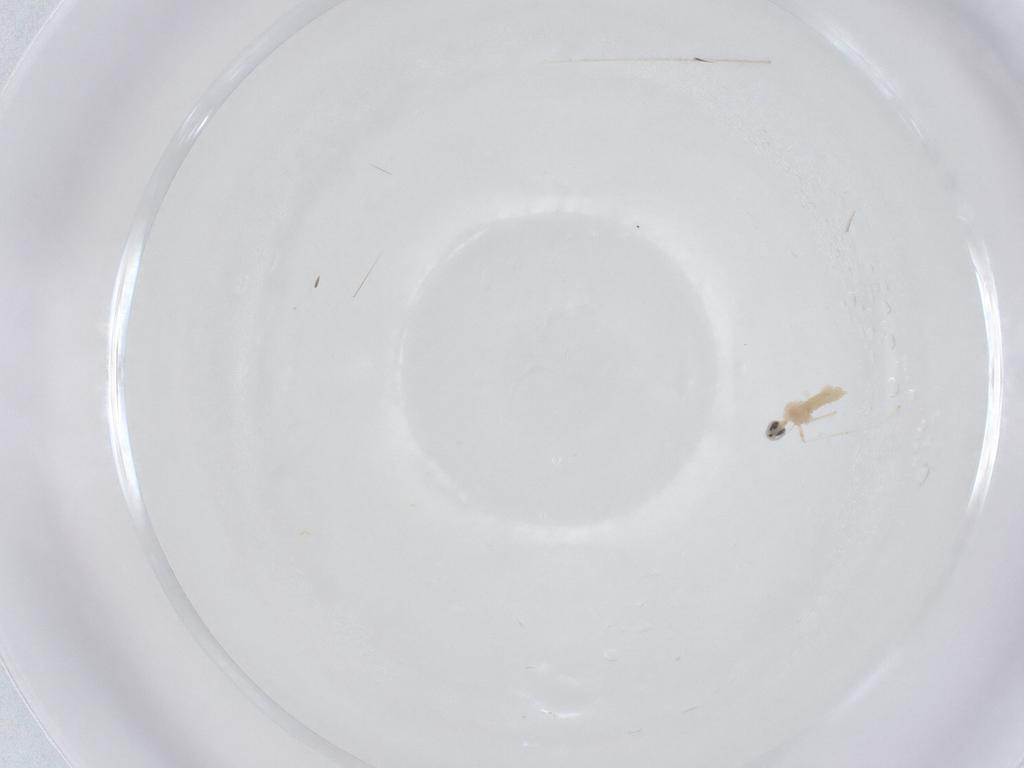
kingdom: Animalia
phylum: Arthropoda
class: Insecta
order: Diptera
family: Cecidomyiidae
